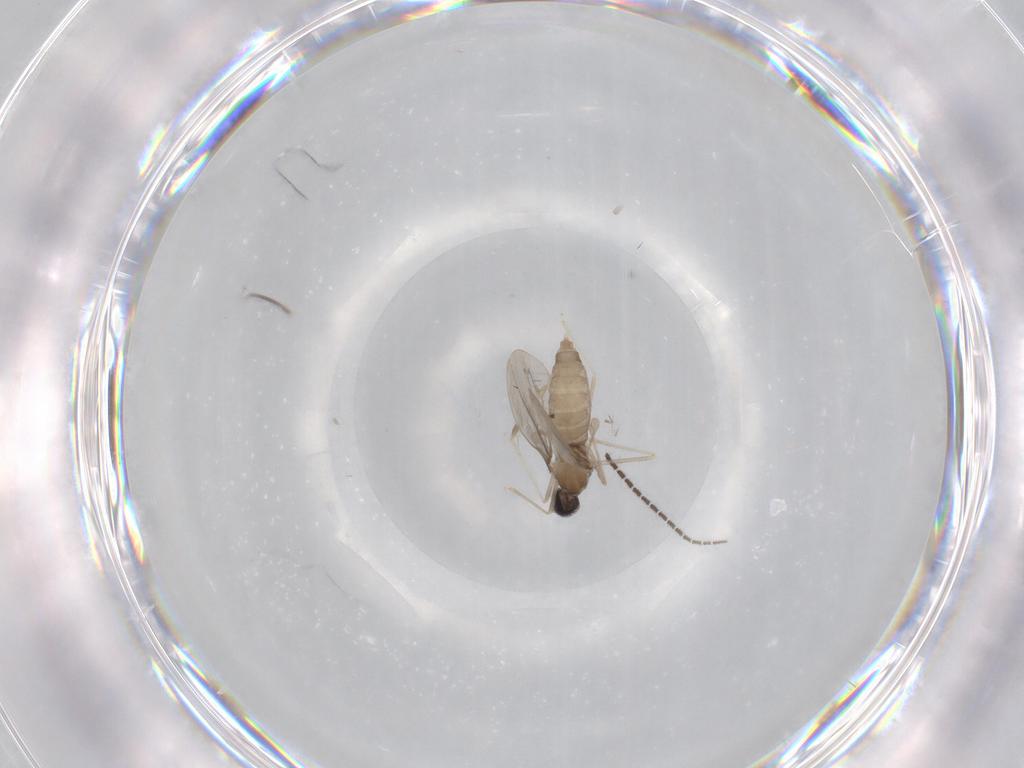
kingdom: Animalia
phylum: Arthropoda
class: Insecta
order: Diptera
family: Cecidomyiidae
